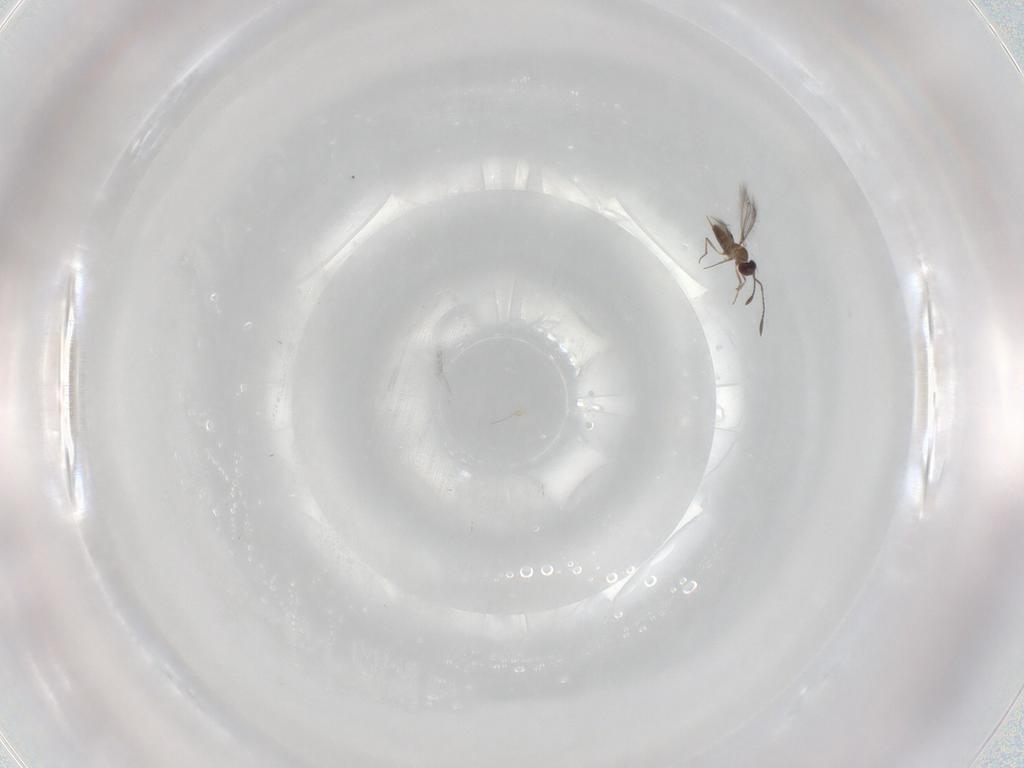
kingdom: Animalia
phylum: Arthropoda
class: Insecta
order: Hymenoptera
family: Mymaridae
